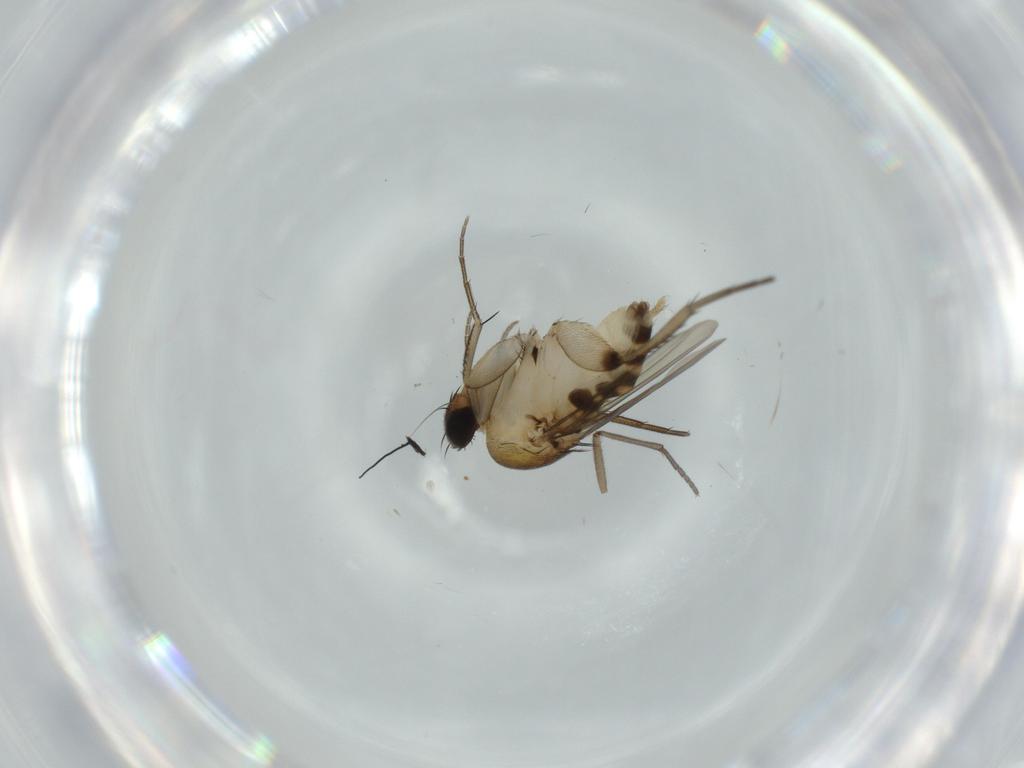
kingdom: Animalia
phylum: Arthropoda
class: Insecta
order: Diptera
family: Phoridae
